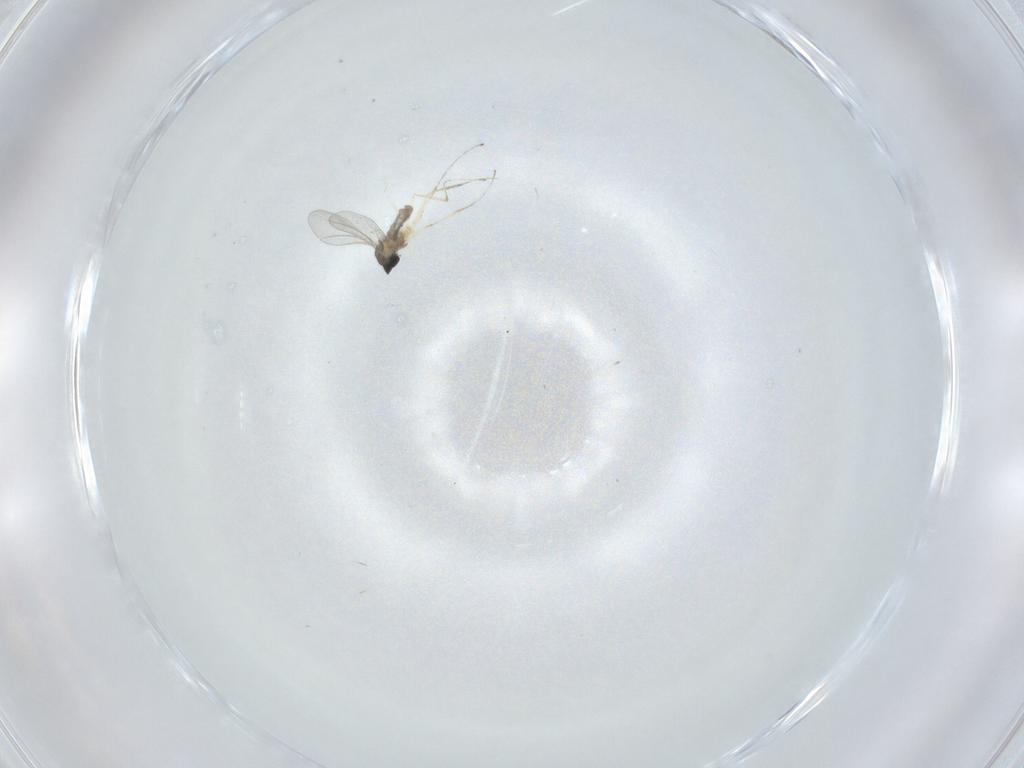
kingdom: Animalia
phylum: Arthropoda
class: Insecta
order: Diptera
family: Cecidomyiidae
